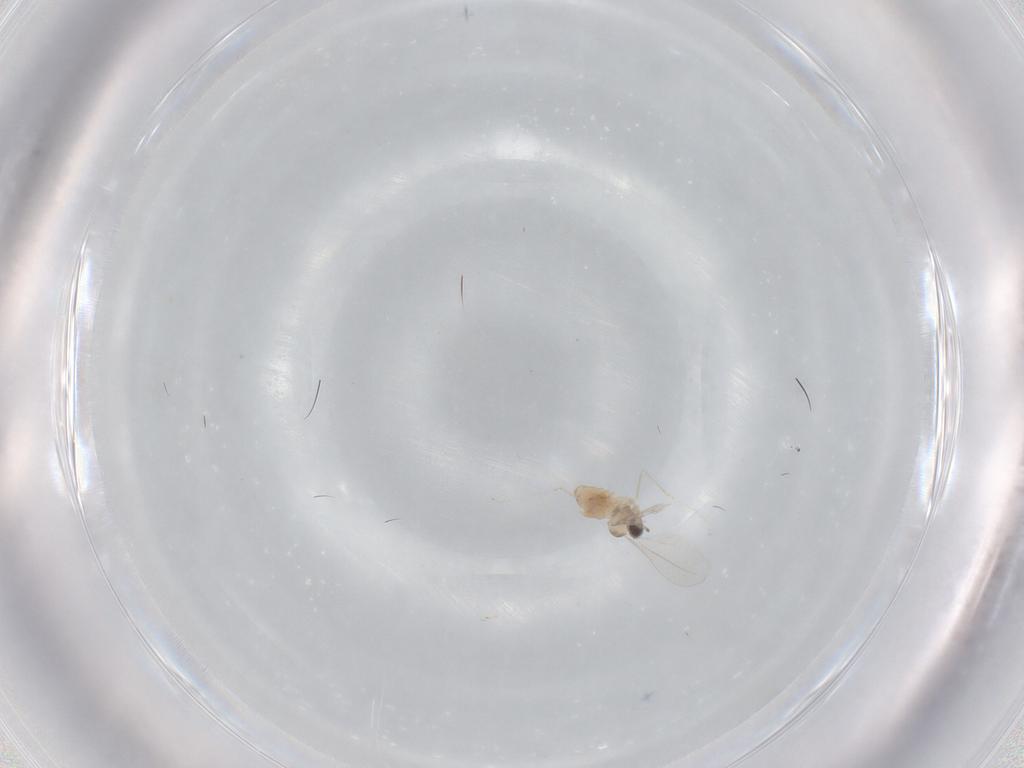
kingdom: Animalia
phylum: Arthropoda
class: Insecta
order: Diptera
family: Cecidomyiidae
